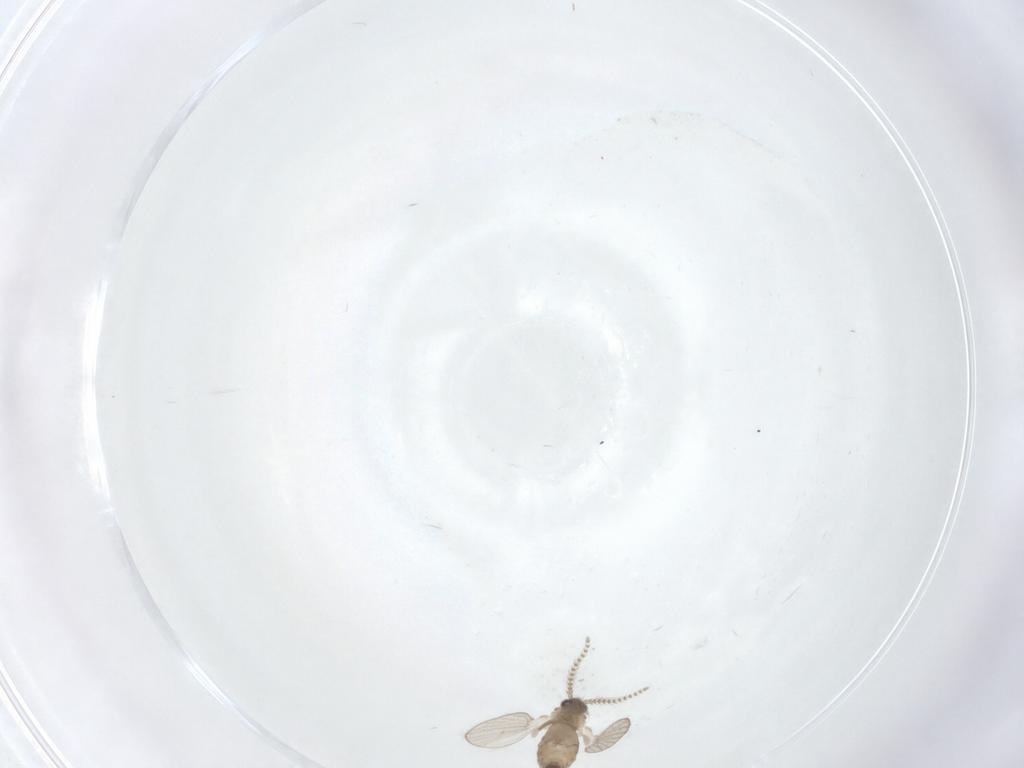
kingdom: Animalia
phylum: Arthropoda
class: Insecta
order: Diptera
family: Psychodidae
